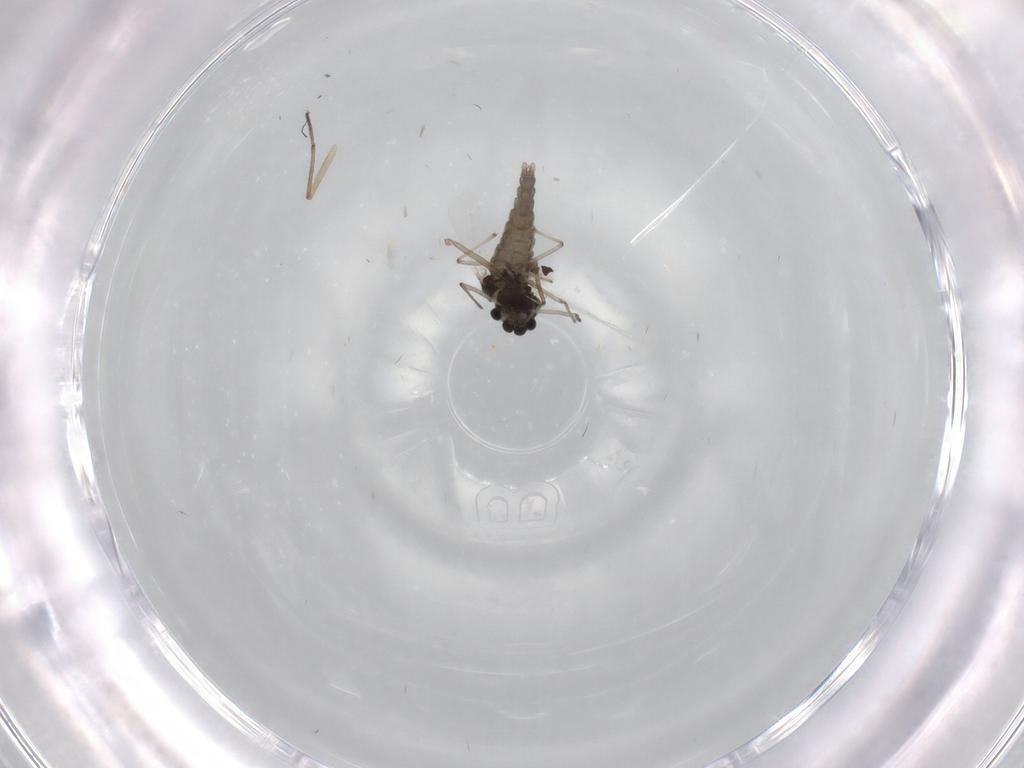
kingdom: Animalia
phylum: Arthropoda
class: Insecta
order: Diptera
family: Chironomidae
